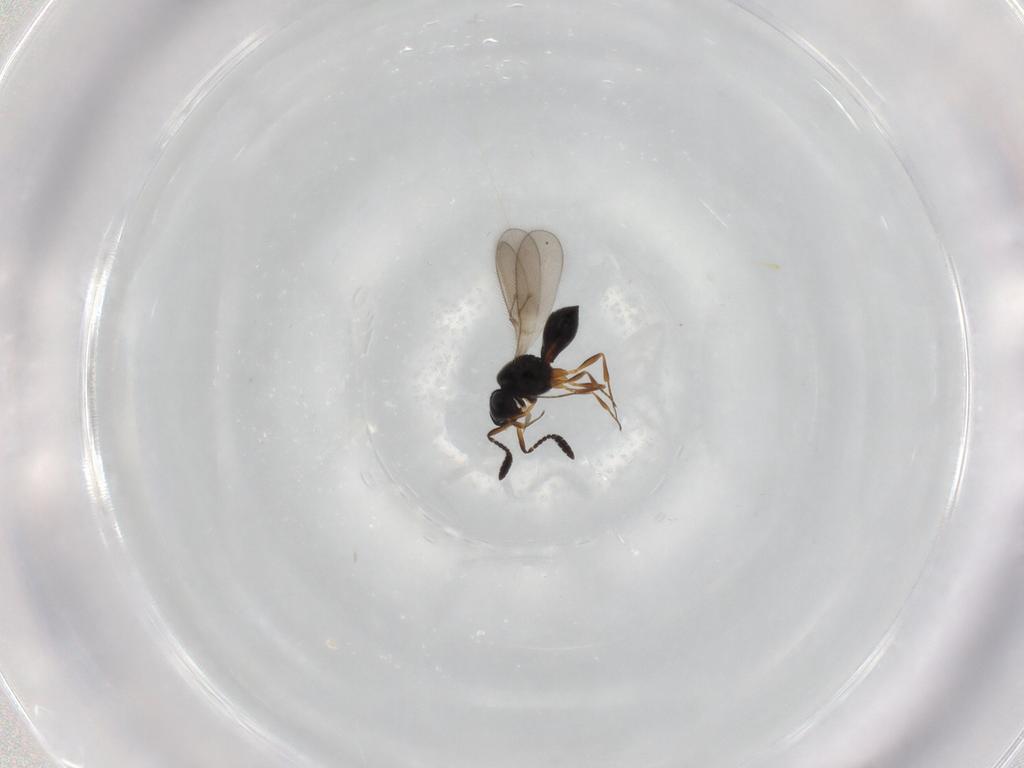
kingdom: Animalia
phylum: Arthropoda
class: Insecta
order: Hymenoptera
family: Scelionidae
